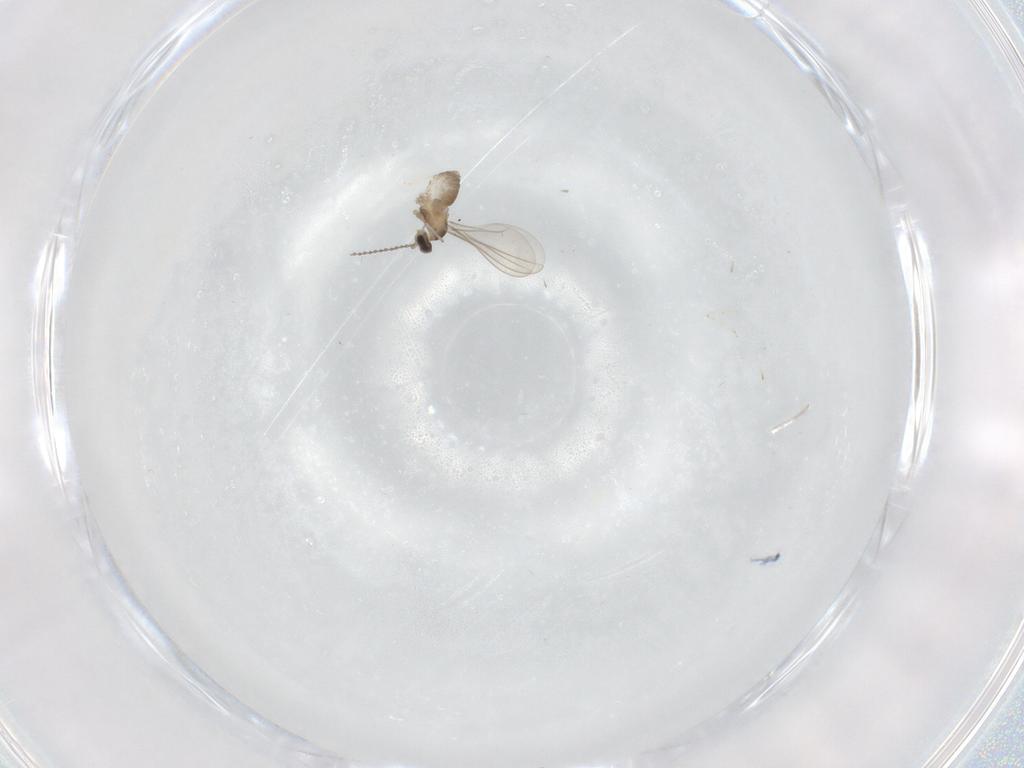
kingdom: Animalia
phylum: Arthropoda
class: Insecta
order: Diptera
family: Cecidomyiidae
